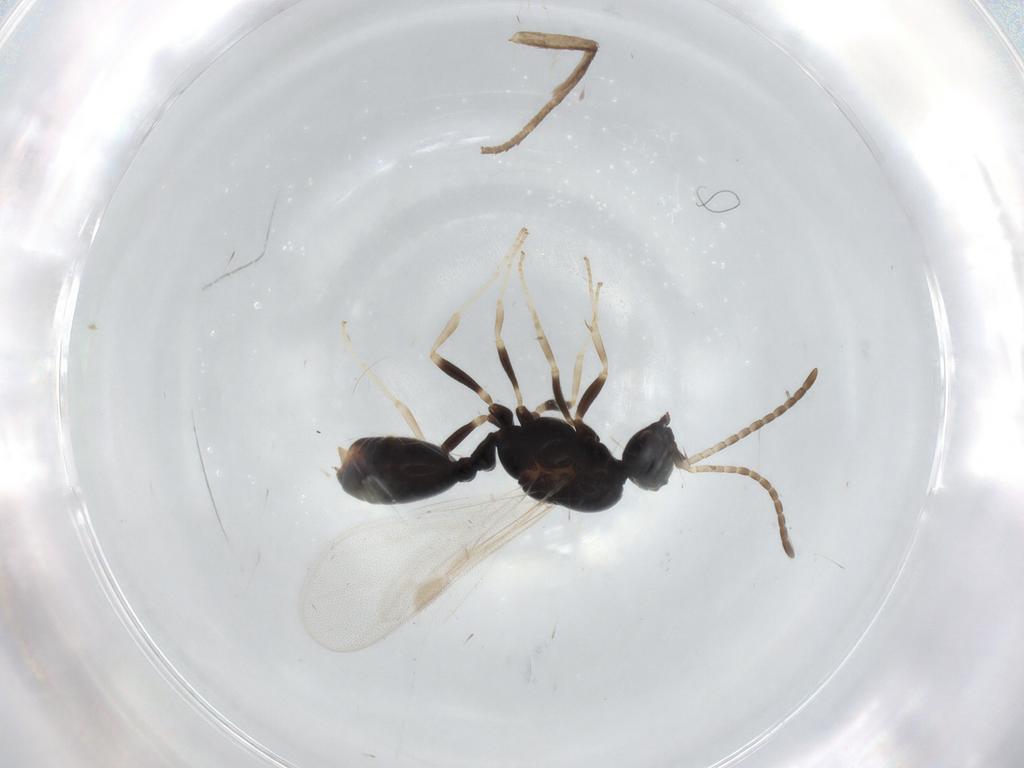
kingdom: Animalia
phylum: Arthropoda
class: Insecta
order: Hymenoptera
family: Formicidae
